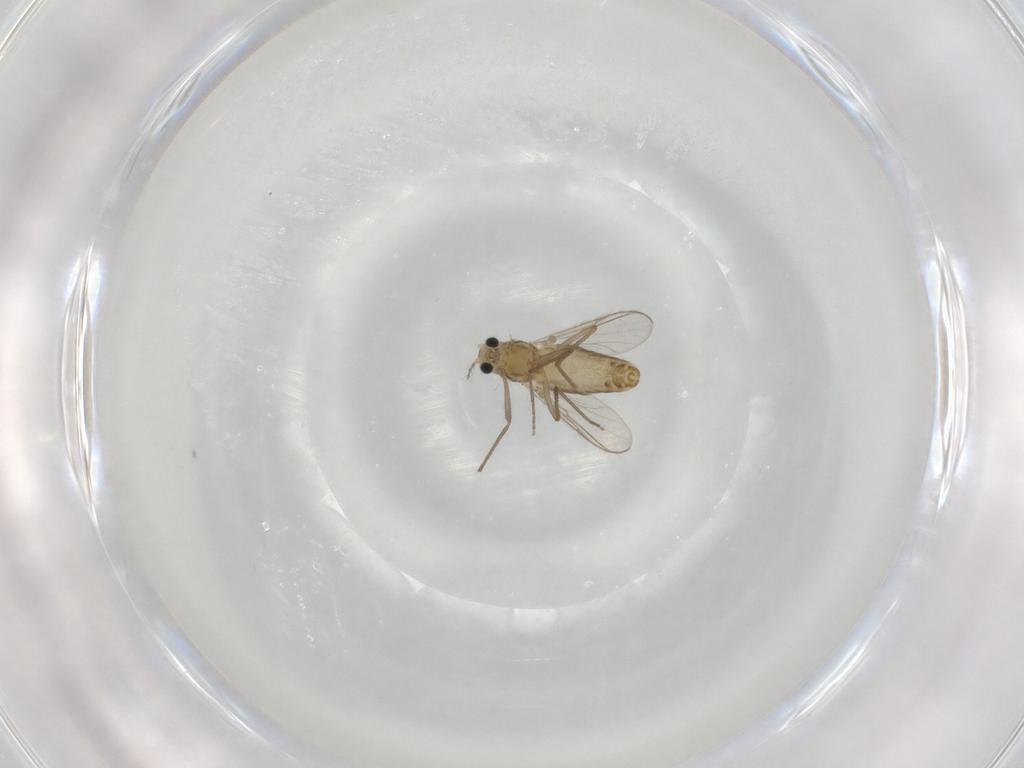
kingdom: Animalia
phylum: Arthropoda
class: Insecta
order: Diptera
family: Chironomidae
